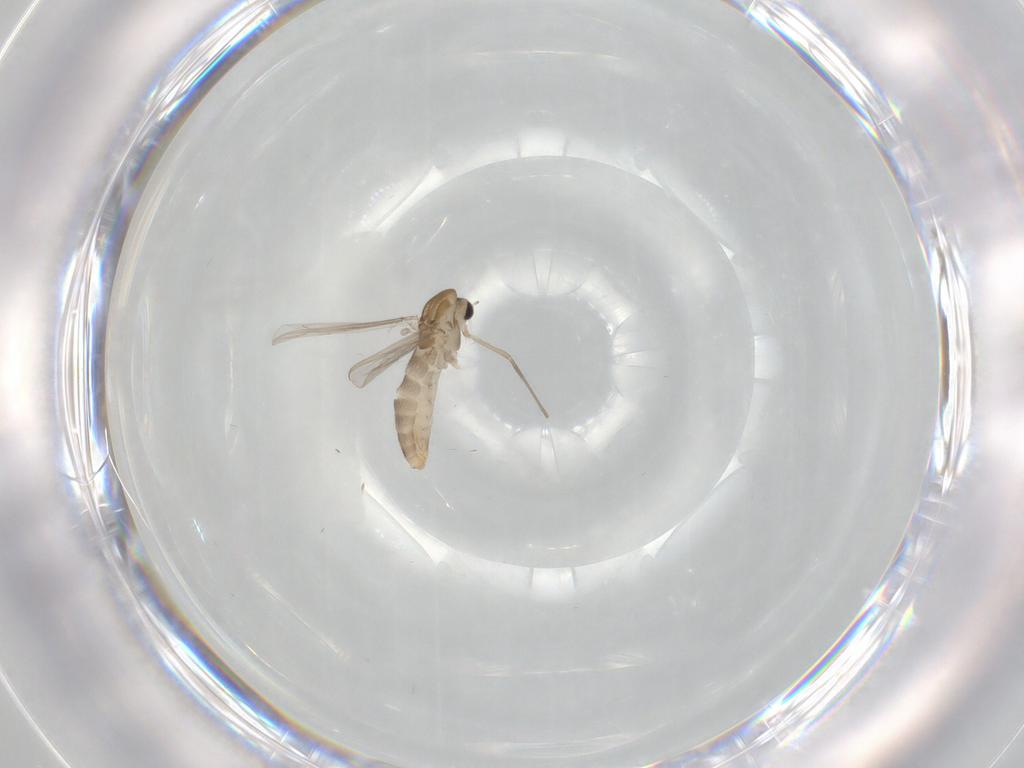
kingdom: Animalia
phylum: Arthropoda
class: Insecta
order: Diptera
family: Chironomidae
